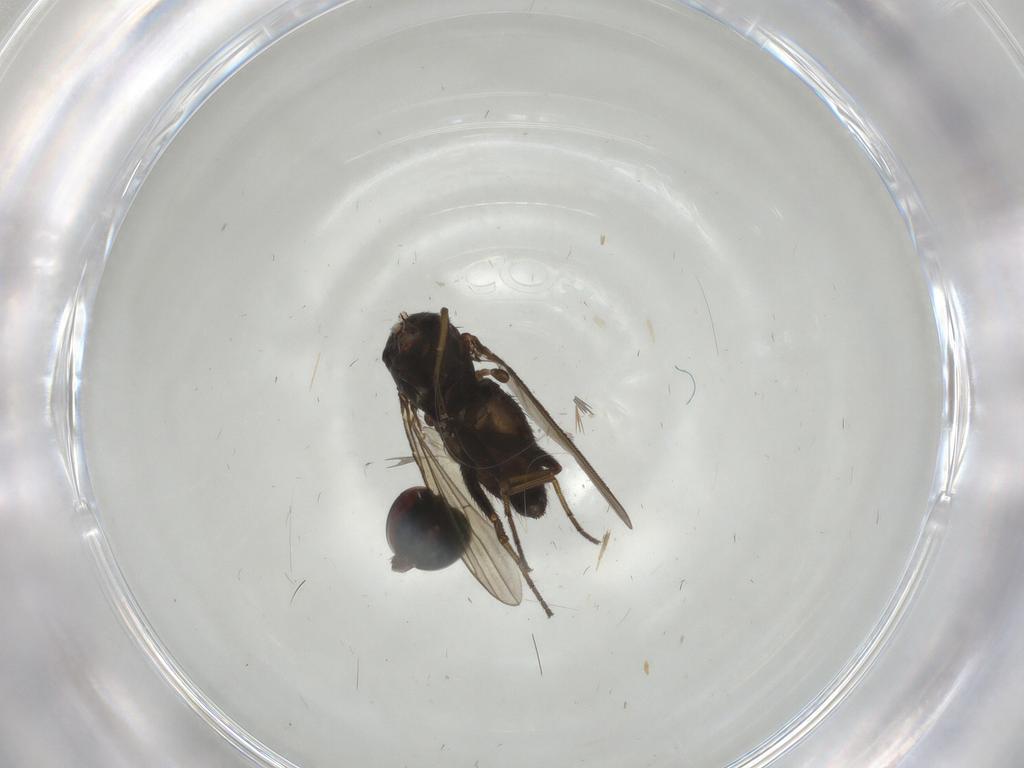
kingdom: Animalia
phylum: Arthropoda
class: Insecta
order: Diptera
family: Dolichopodidae
